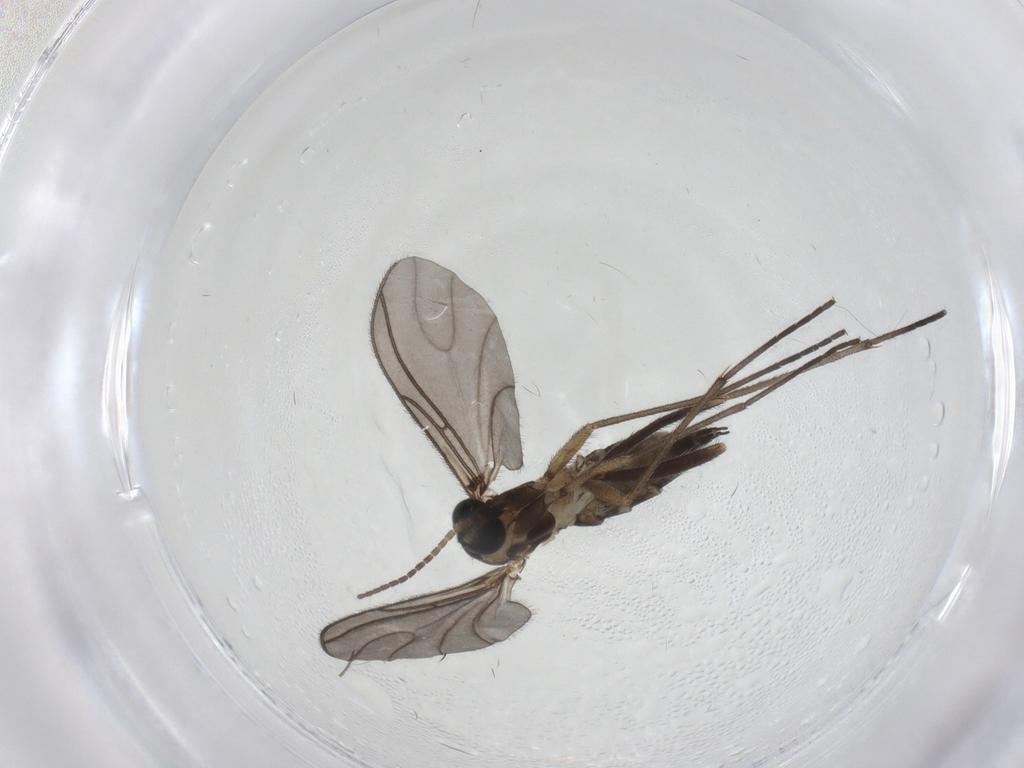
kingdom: Animalia
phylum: Arthropoda
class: Insecta
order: Diptera
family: Sciaridae
